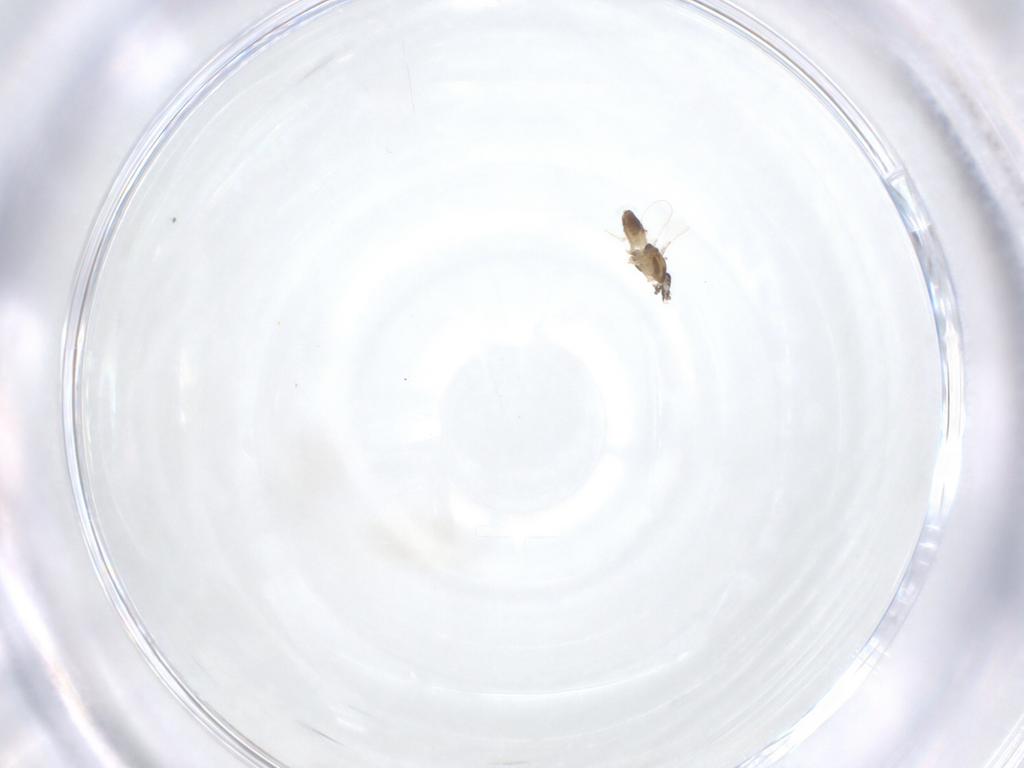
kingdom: Animalia
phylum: Arthropoda
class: Insecta
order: Diptera
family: Chironomidae
